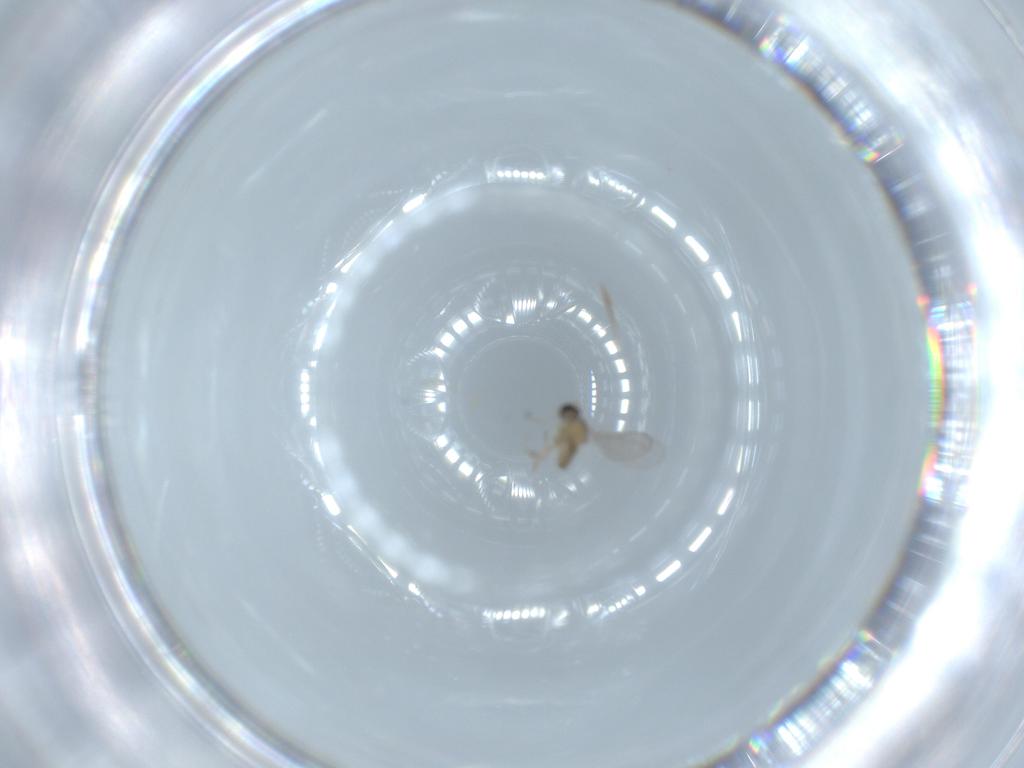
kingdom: Animalia
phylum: Arthropoda
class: Insecta
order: Diptera
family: Cecidomyiidae
